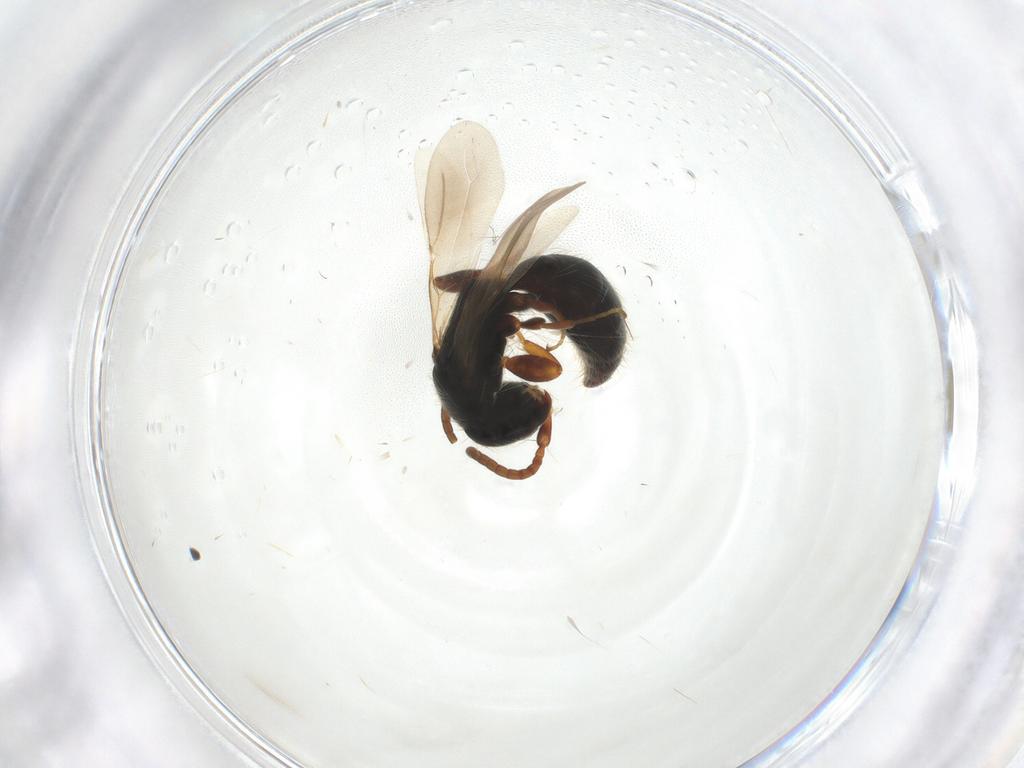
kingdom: Animalia
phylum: Arthropoda
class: Insecta
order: Hymenoptera
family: Bethylidae
